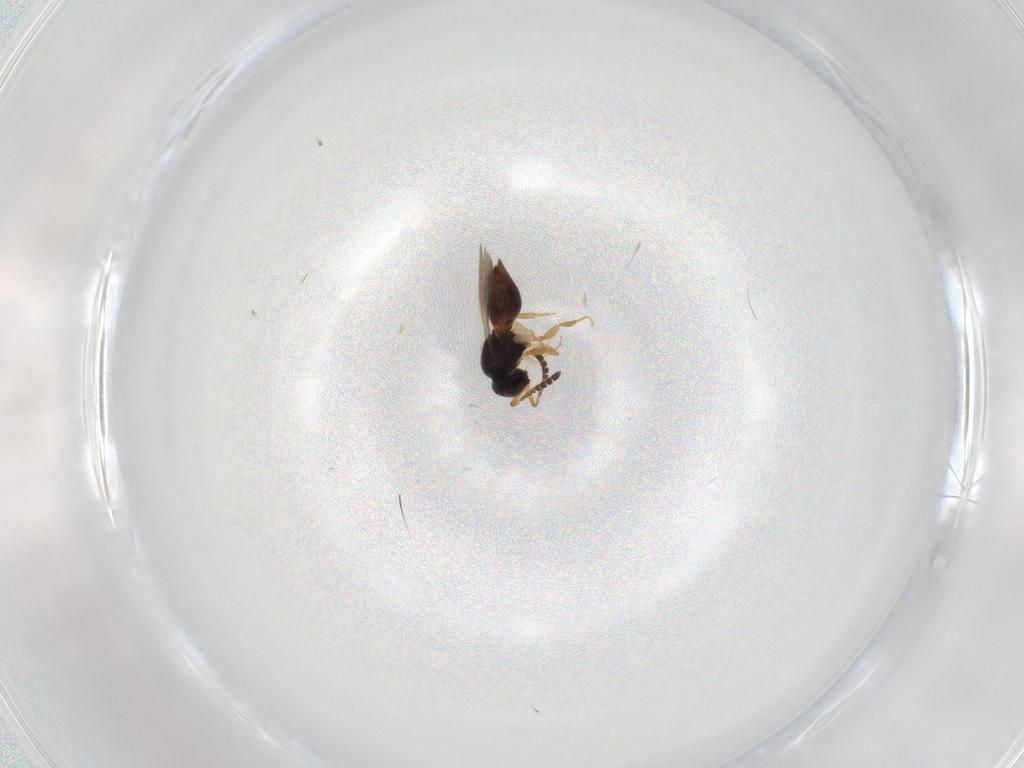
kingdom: Animalia
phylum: Arthropoda
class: Insecta
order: Hymenoptera
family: Ceraphronidae
